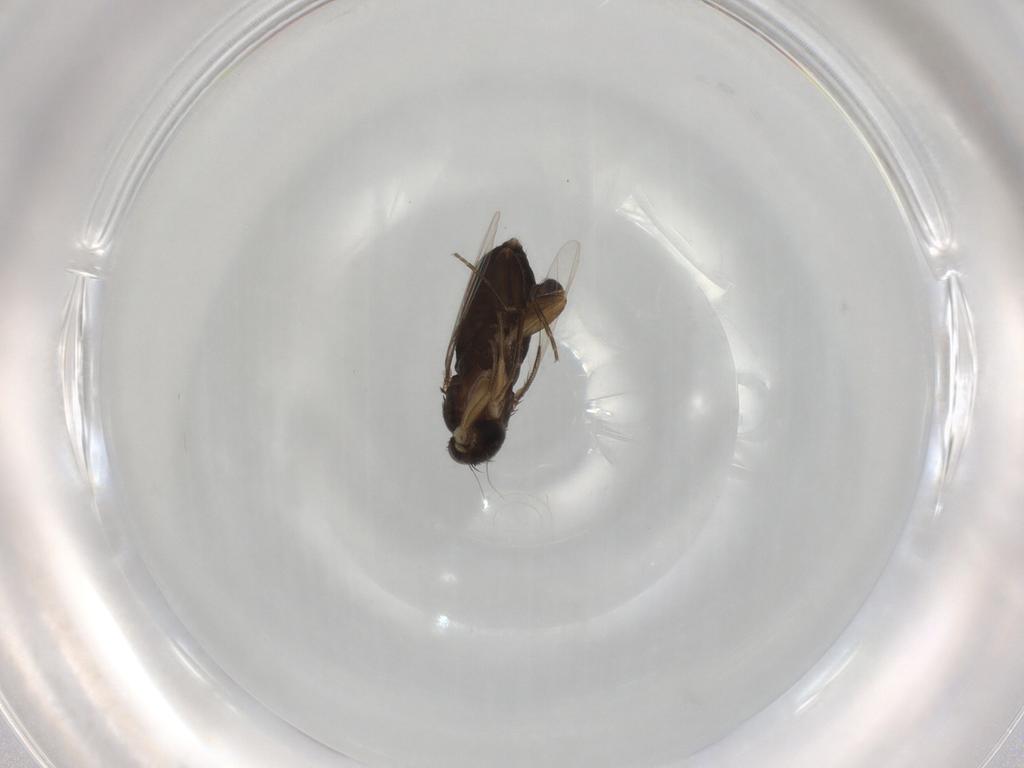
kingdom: Animalia
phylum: Arthropoda
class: Insecta
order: Diptera
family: Phoridae
